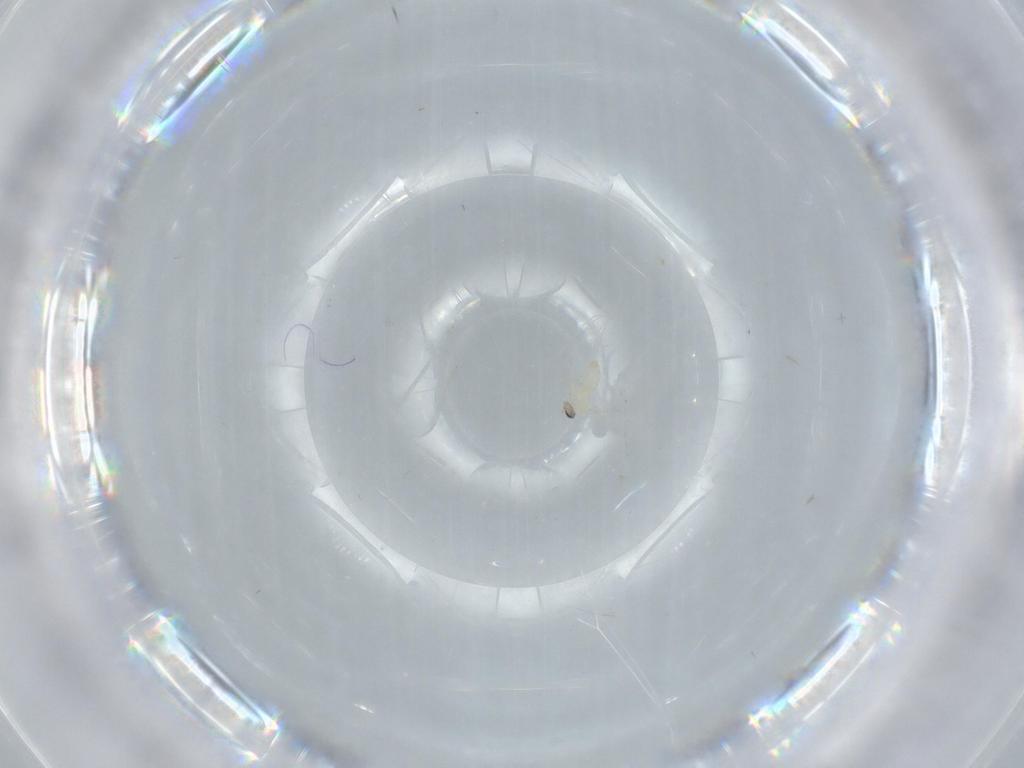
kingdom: Animalia
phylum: Arthropoda
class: Insecta
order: Diptera
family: Cecidomyiidae
